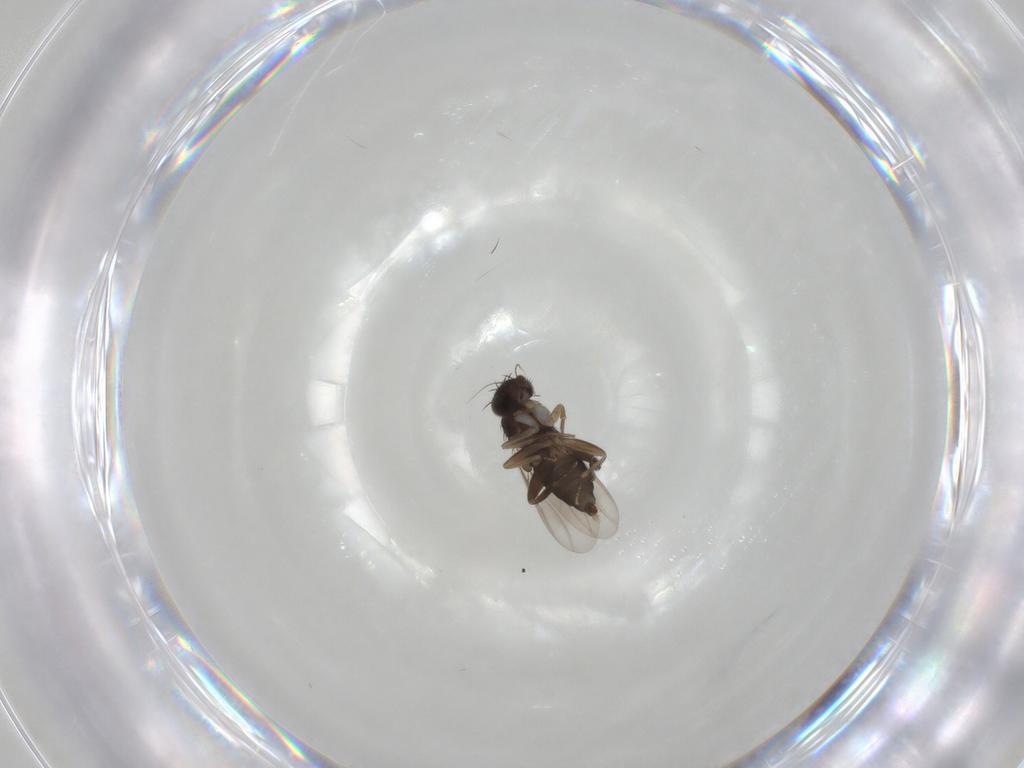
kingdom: Animalia
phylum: Arthropoda
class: Insecta
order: Diptera
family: Phoridae
